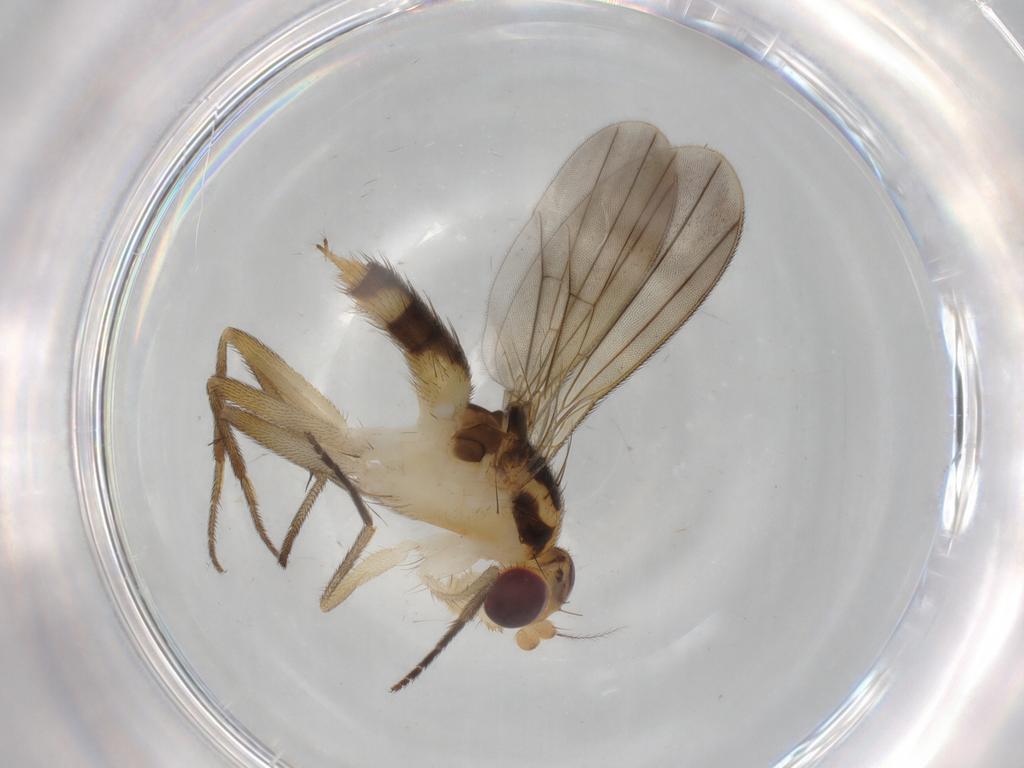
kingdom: Animalia
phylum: Arthropoda
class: Insecta
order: Diptera
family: Clusiidae
